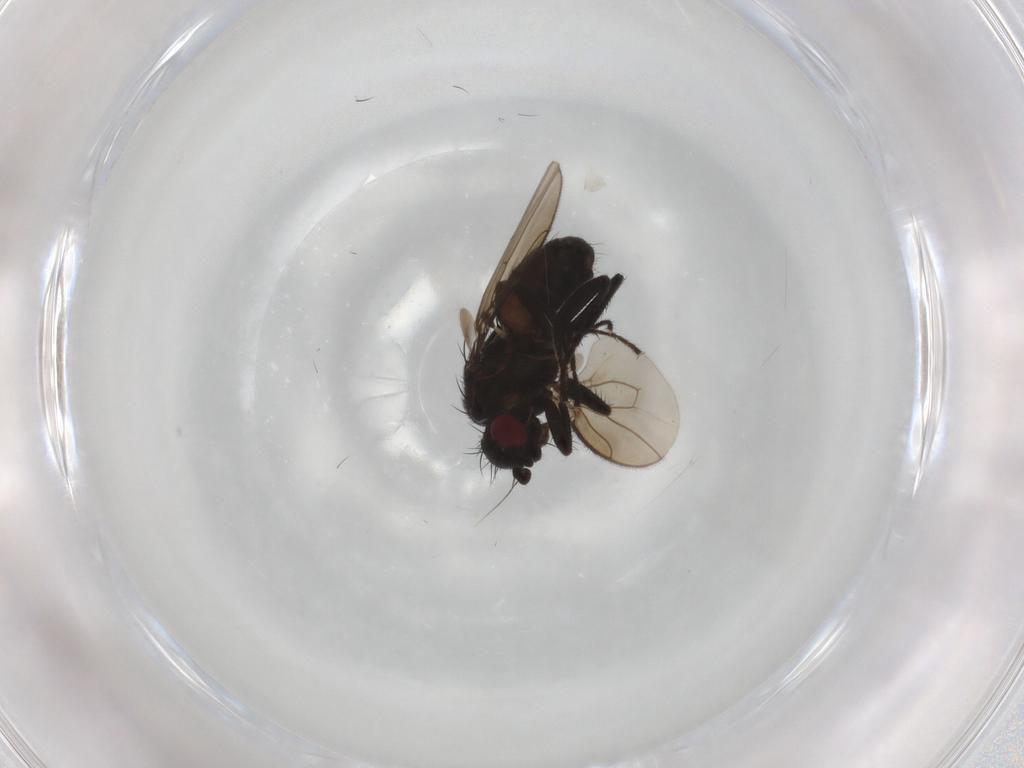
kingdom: Animalia
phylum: Arthropoda
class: Insecta
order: Diptera
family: Sphaeroceridae
